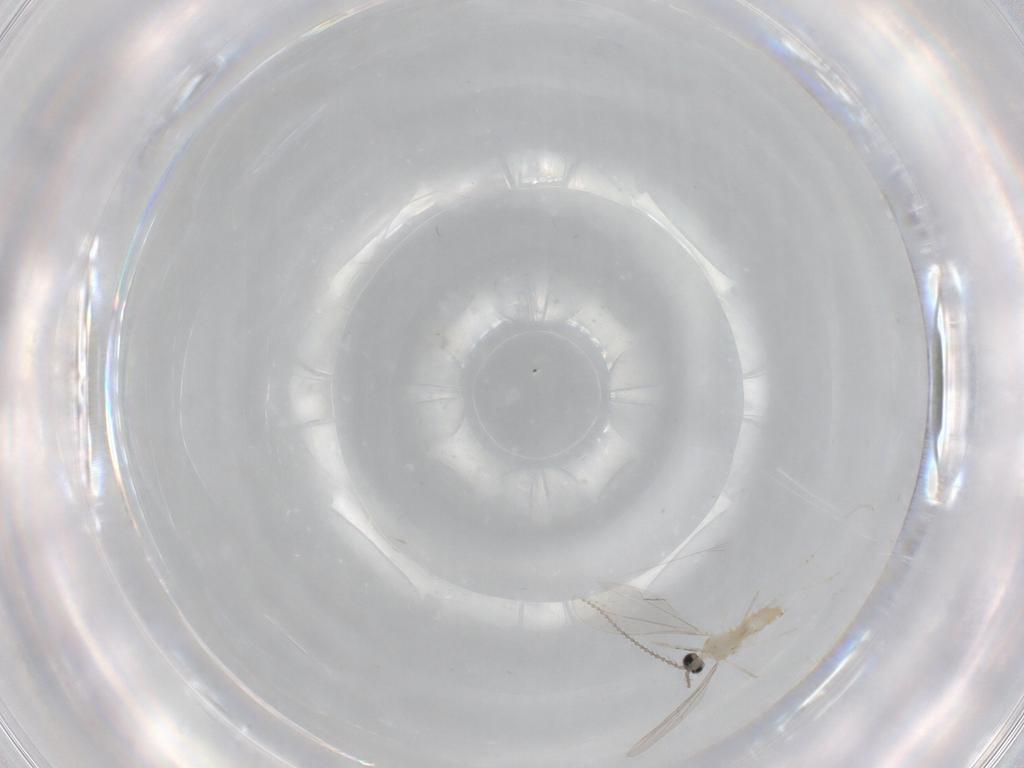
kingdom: Animalia
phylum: Arthropoda
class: Insecta
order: Diptera
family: Cecidomyiidae
